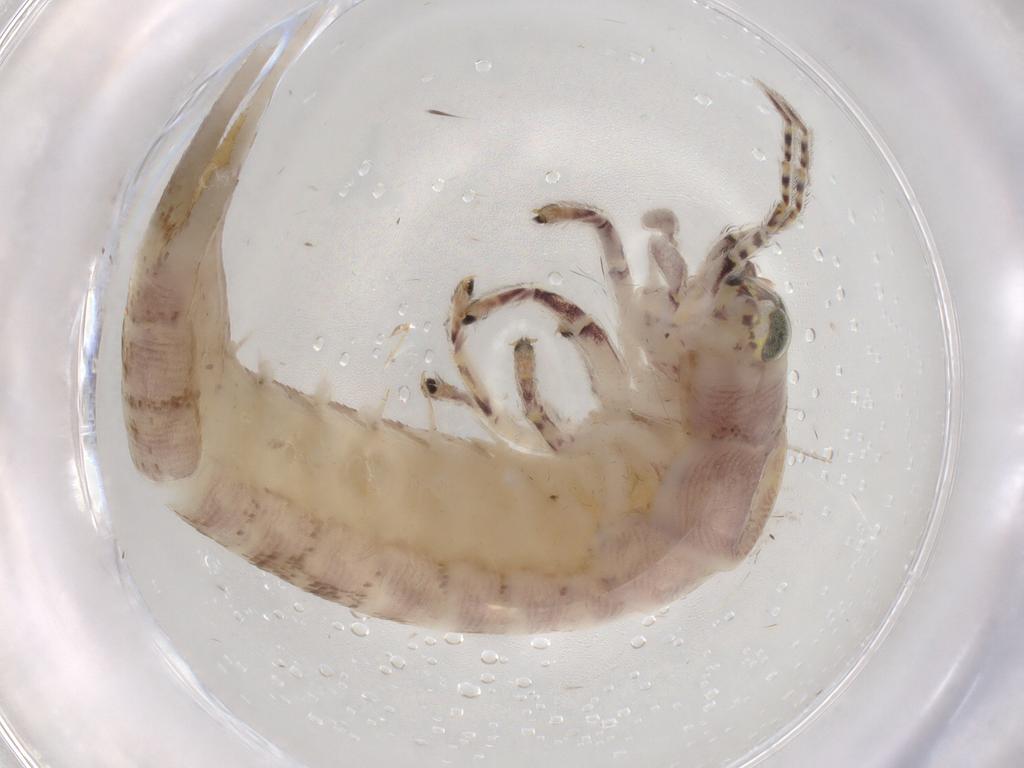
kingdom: Animalia
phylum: Arthropoda
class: Insecta
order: Archaeognatha
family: Machilidae
